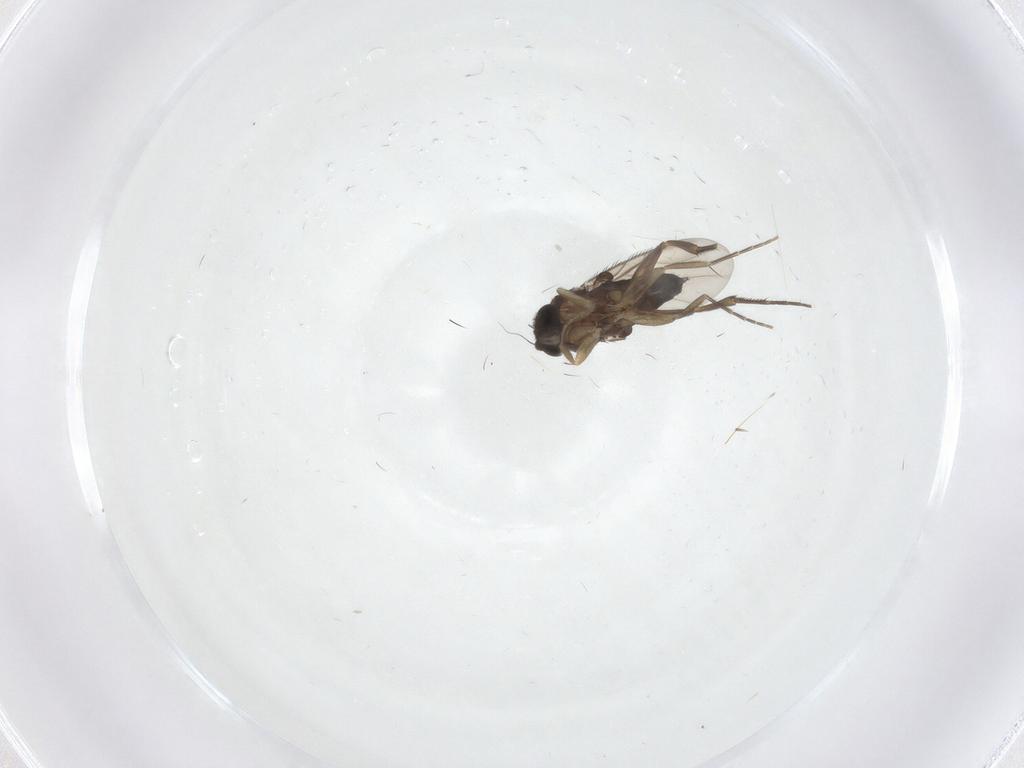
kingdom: Animalia
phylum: Arthropoda
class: Insecta
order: Diptera
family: Phoridae
